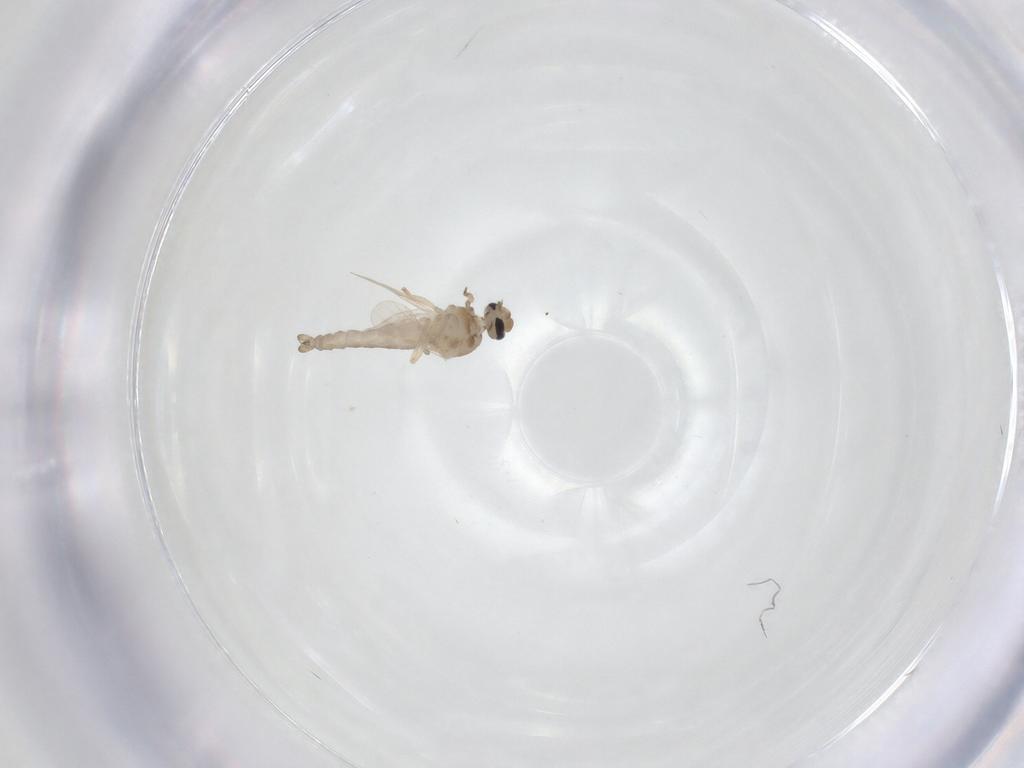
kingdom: Animalia
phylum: Arthropoda
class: Insecta
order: Diptera
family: Ceratopogonidae
